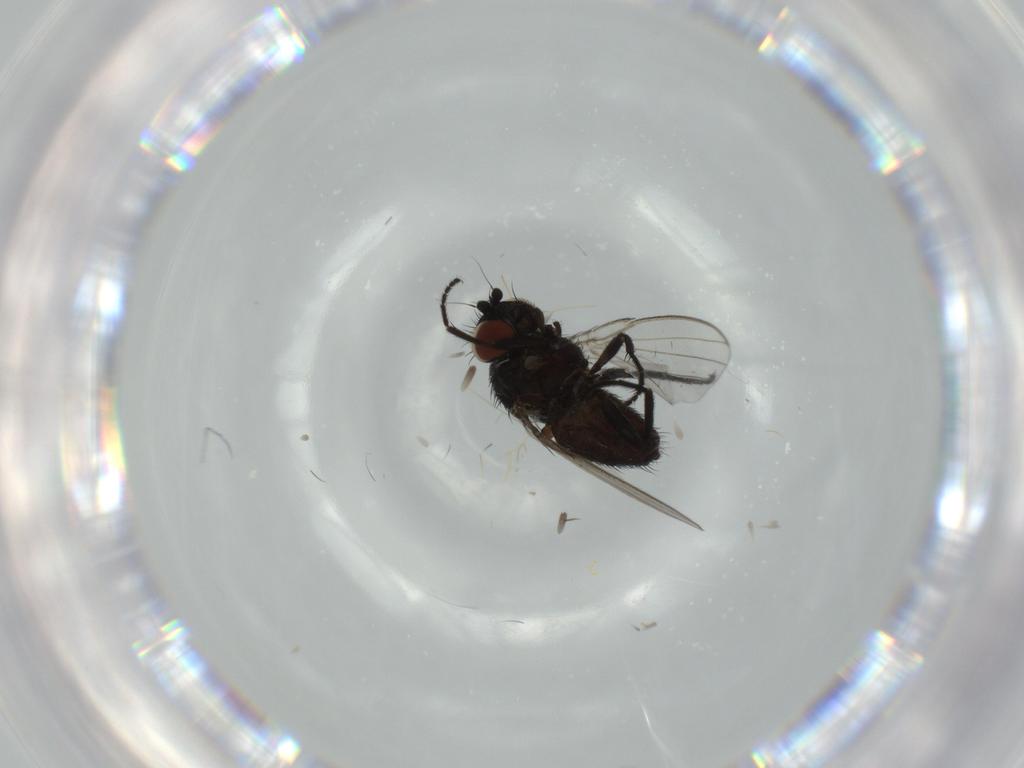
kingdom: Animalia
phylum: Arthropoda
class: Insecta
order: Diptera
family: Milichiidae
